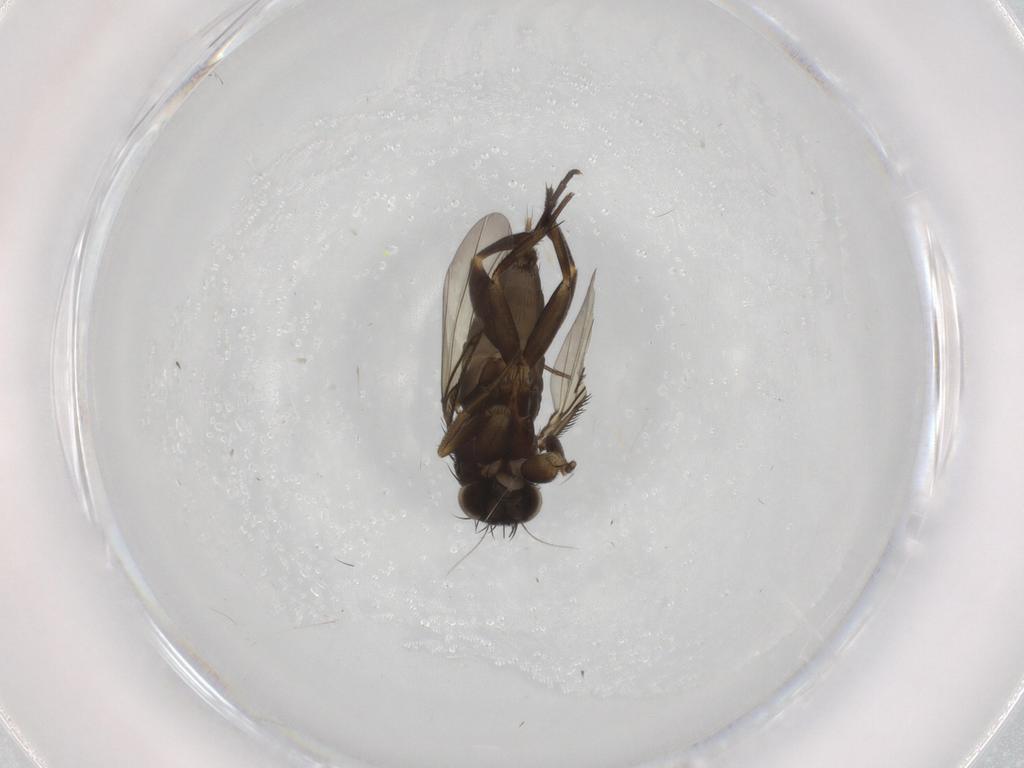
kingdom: Animalia
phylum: Arthropoda
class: Insecta
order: Diptera
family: Phoridae
